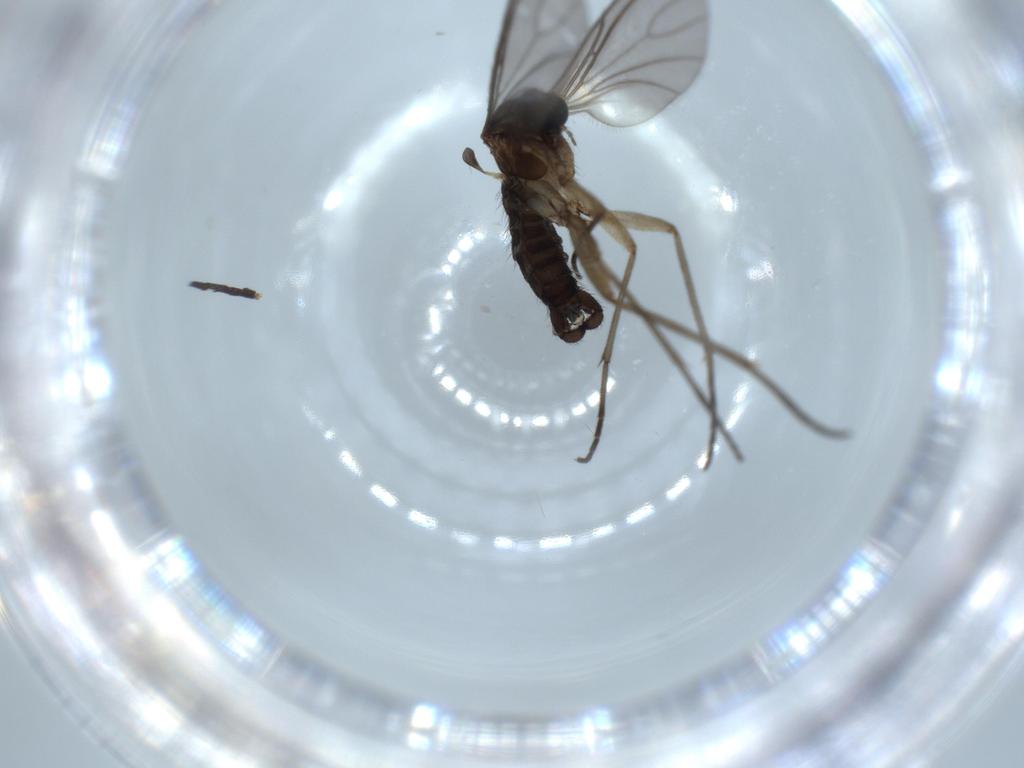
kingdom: Animalia
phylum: Arthropoda
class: Insecta
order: Diptera
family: Sciaridae
